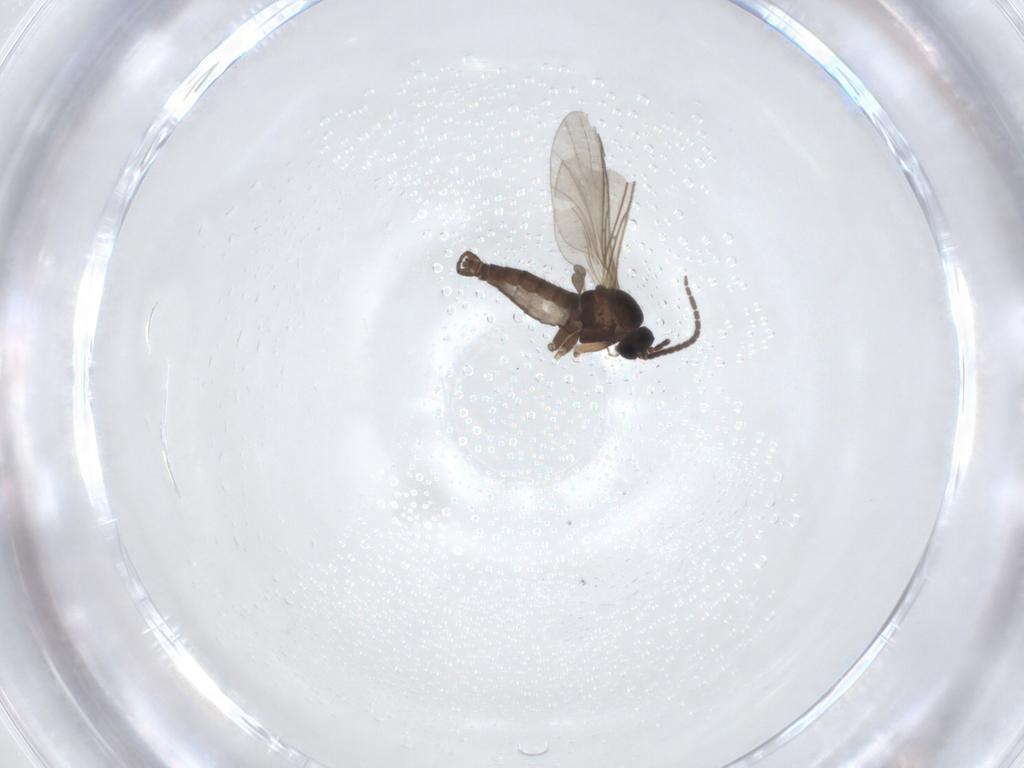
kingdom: Animalia
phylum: Arthropoda
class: Insecta
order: Diptera
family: Sciaridae
